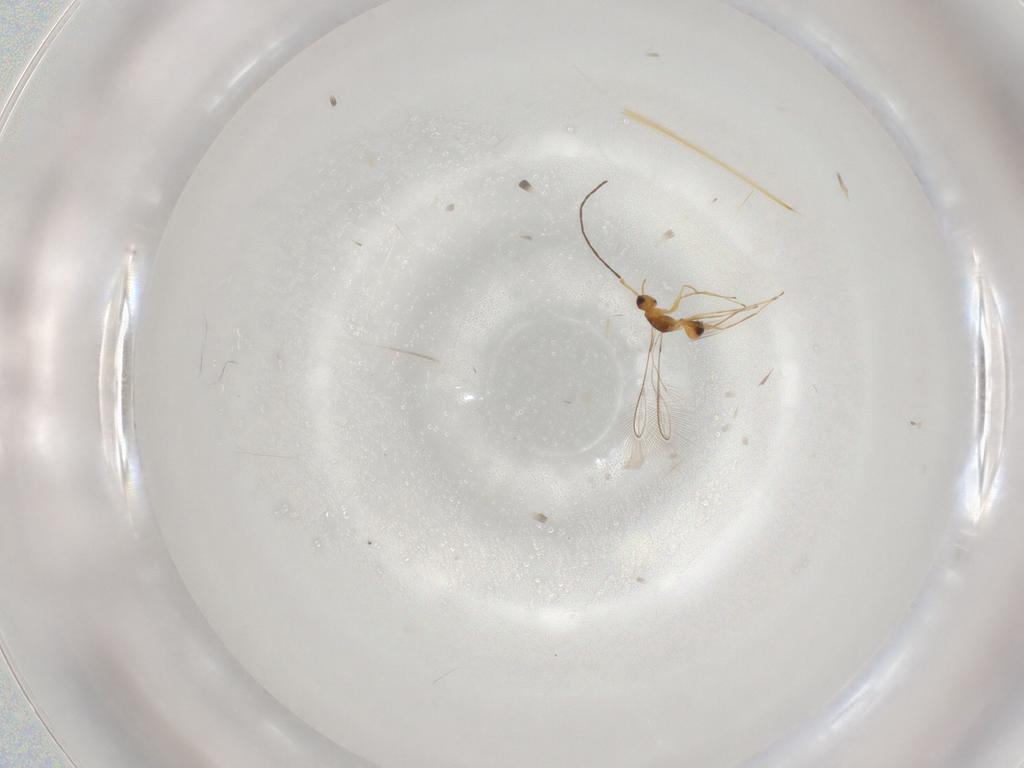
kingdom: Animalia
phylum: Arthropoda
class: Insecta
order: Hymenoptera
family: Mymaridae
